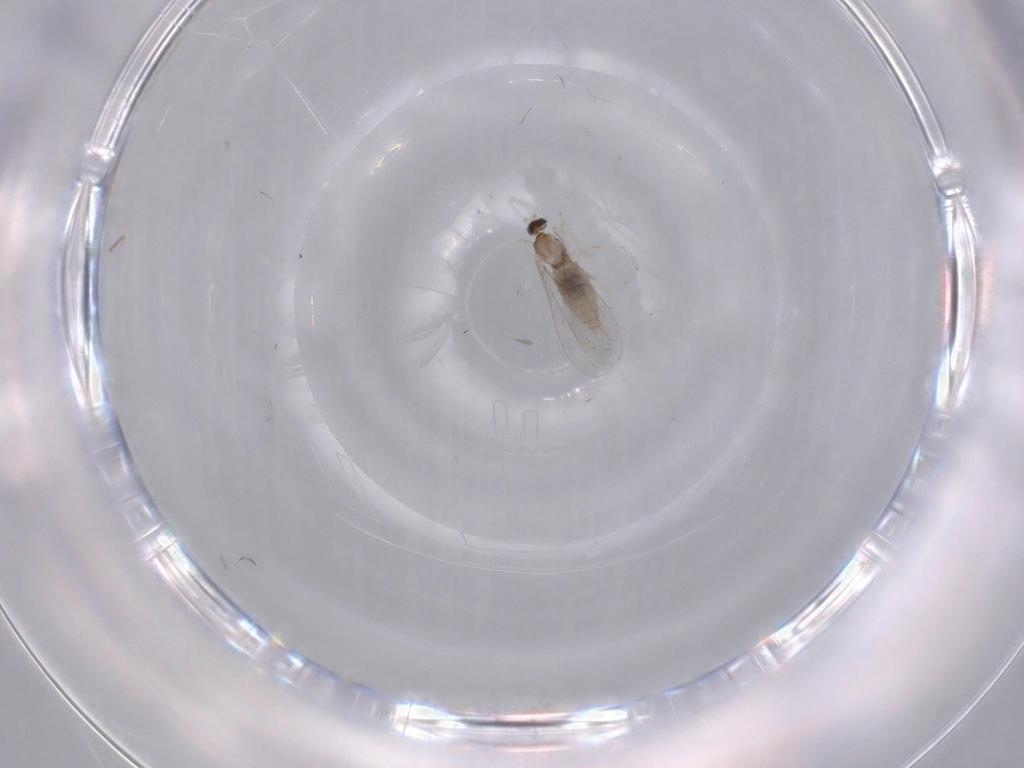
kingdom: Animalia
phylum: Arthropoda
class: Insecta
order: Diptera
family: Cecidomyiidae
